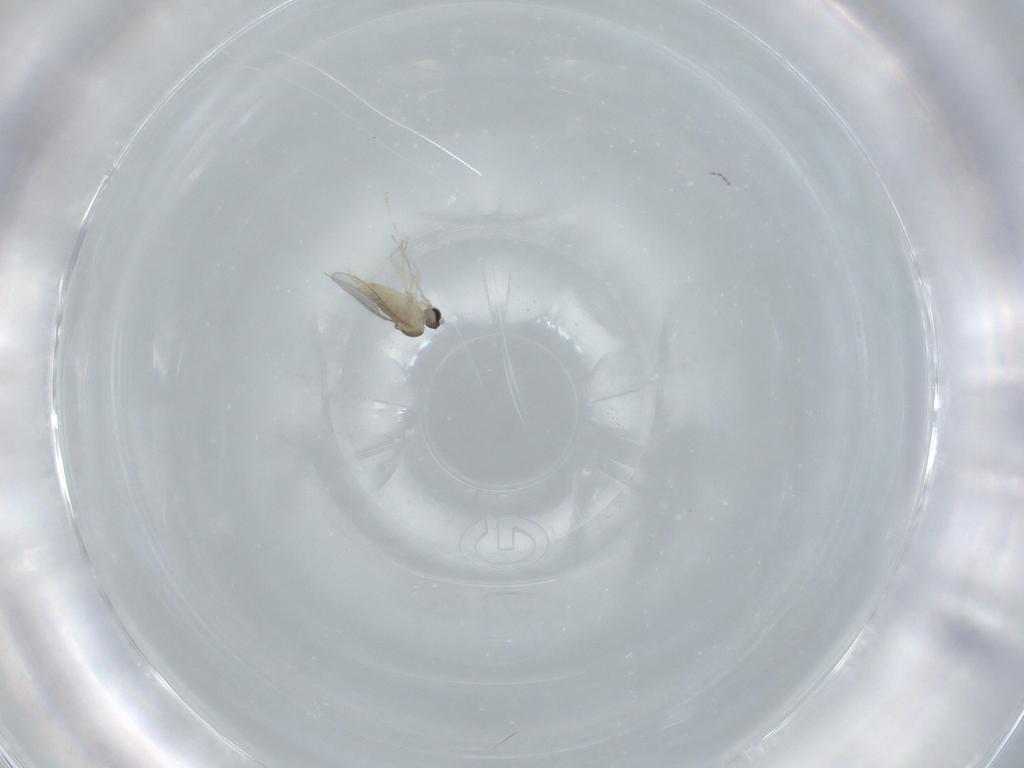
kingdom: Animalia
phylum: Arthropoda
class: Insecta
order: Diptera
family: Cecidomyiidae
